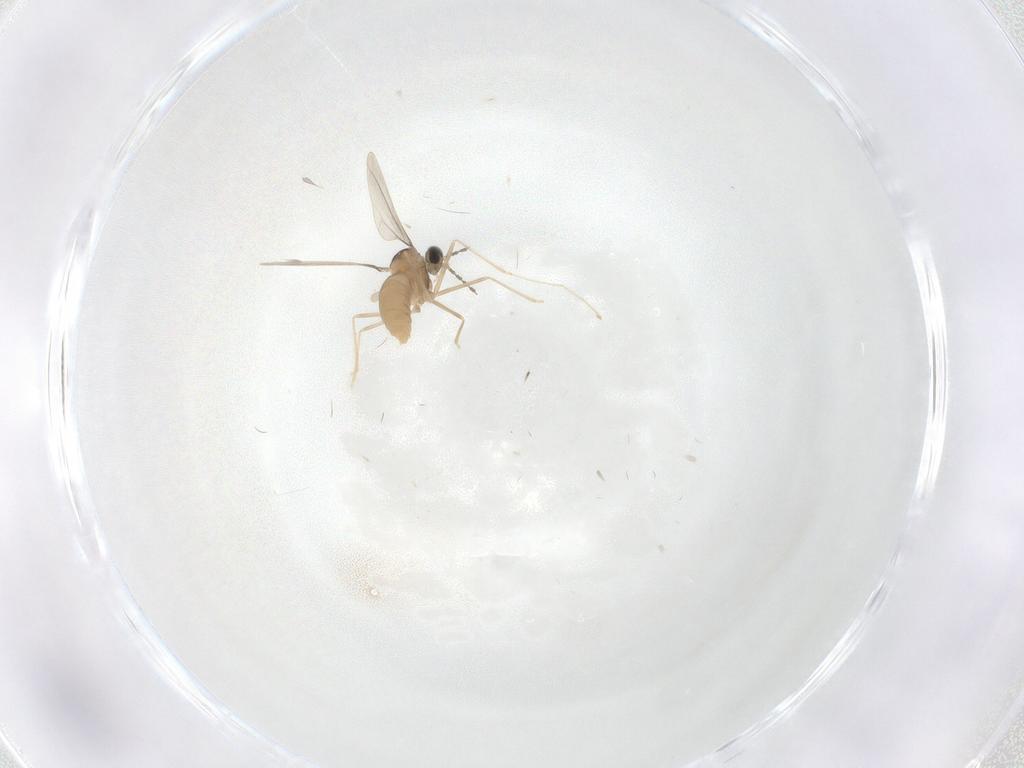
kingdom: Animalia
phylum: Arthropoda
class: Insecta
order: Diptera
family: Cecidomyiidae
